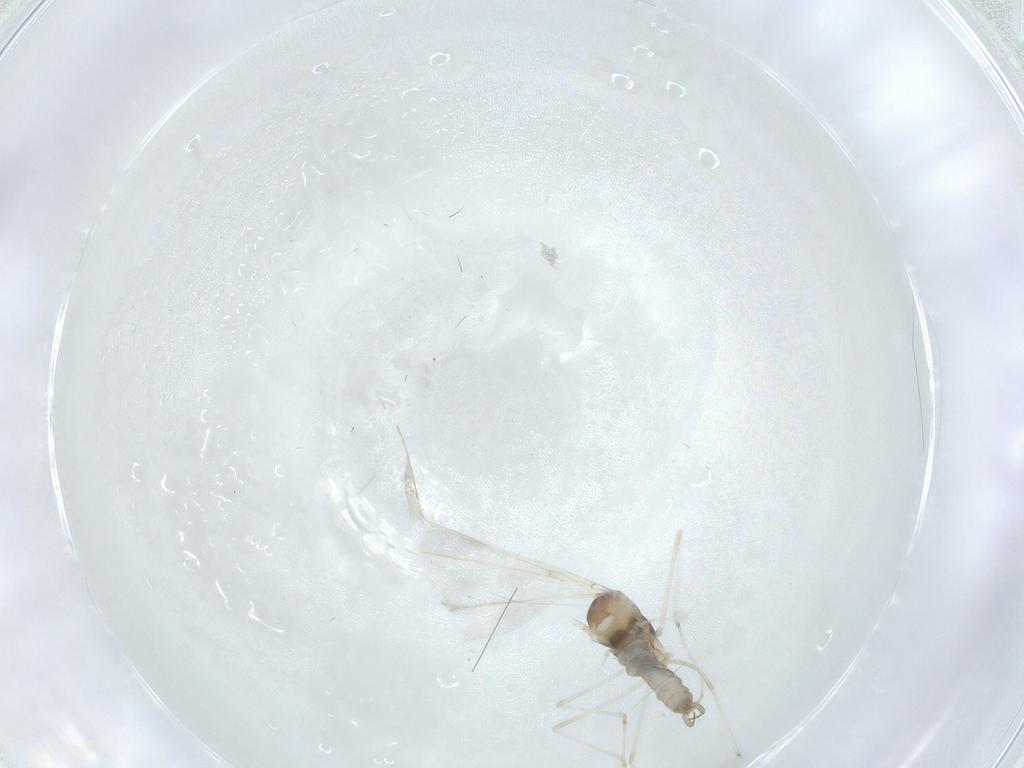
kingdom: Animalia
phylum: Arthropoda
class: Insecta
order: Diptera
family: Cecidomyiidae
